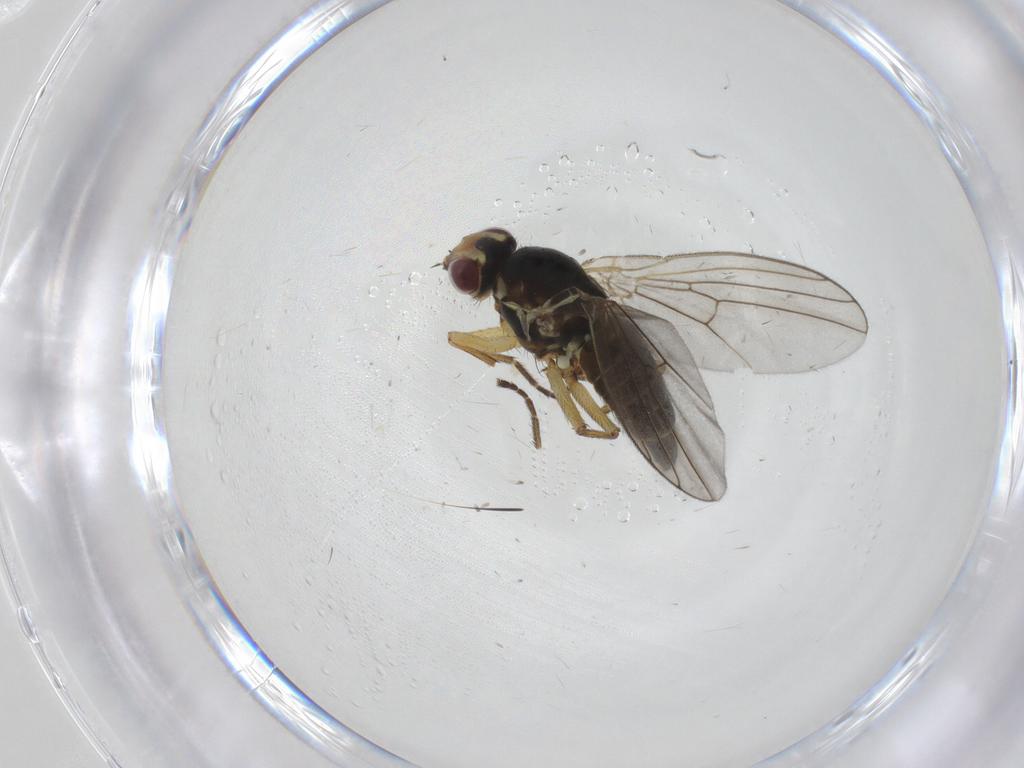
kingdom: Animalia
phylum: Arthropoda
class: Insecta
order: Diptera
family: Agromyzidae
